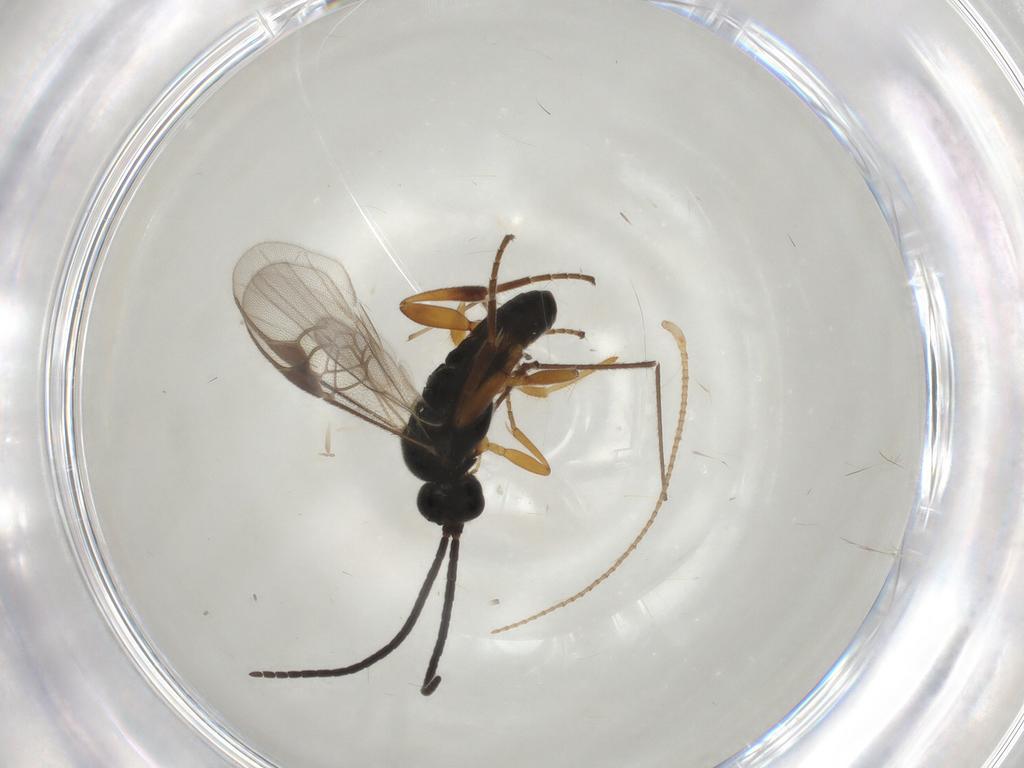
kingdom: Animalia
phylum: Arthropoda
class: Insecta
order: Hymenoptera
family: Braconidae
